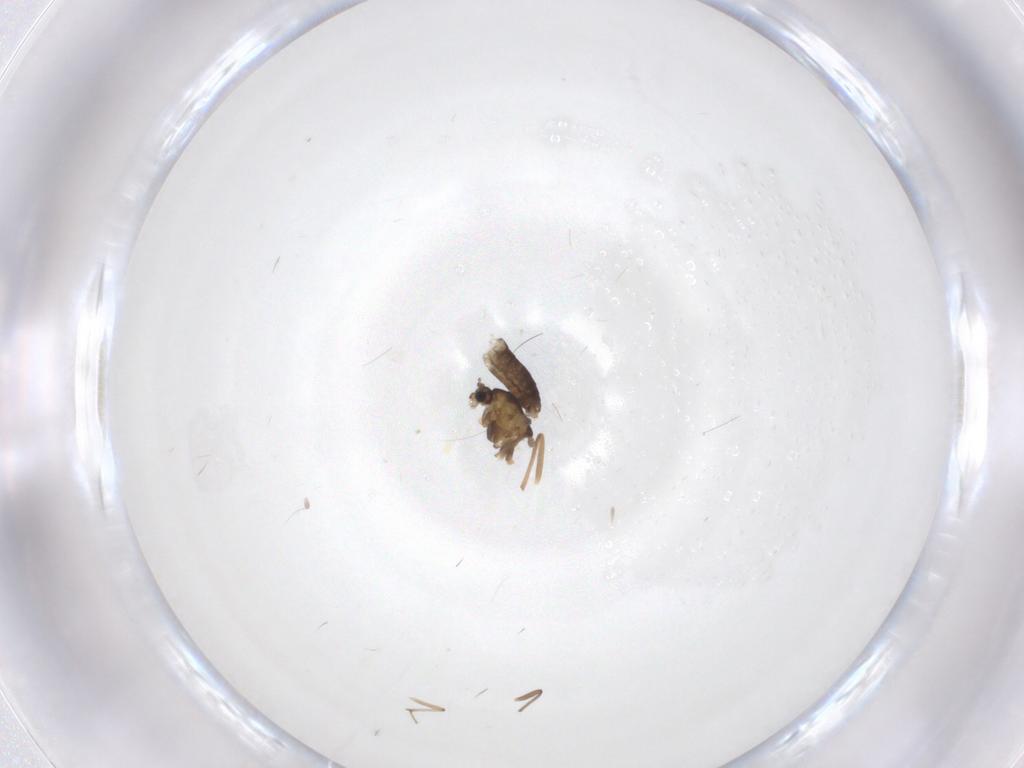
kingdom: Animalia
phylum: Arthropoda
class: Insecta
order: Diptera
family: Chironomidae
